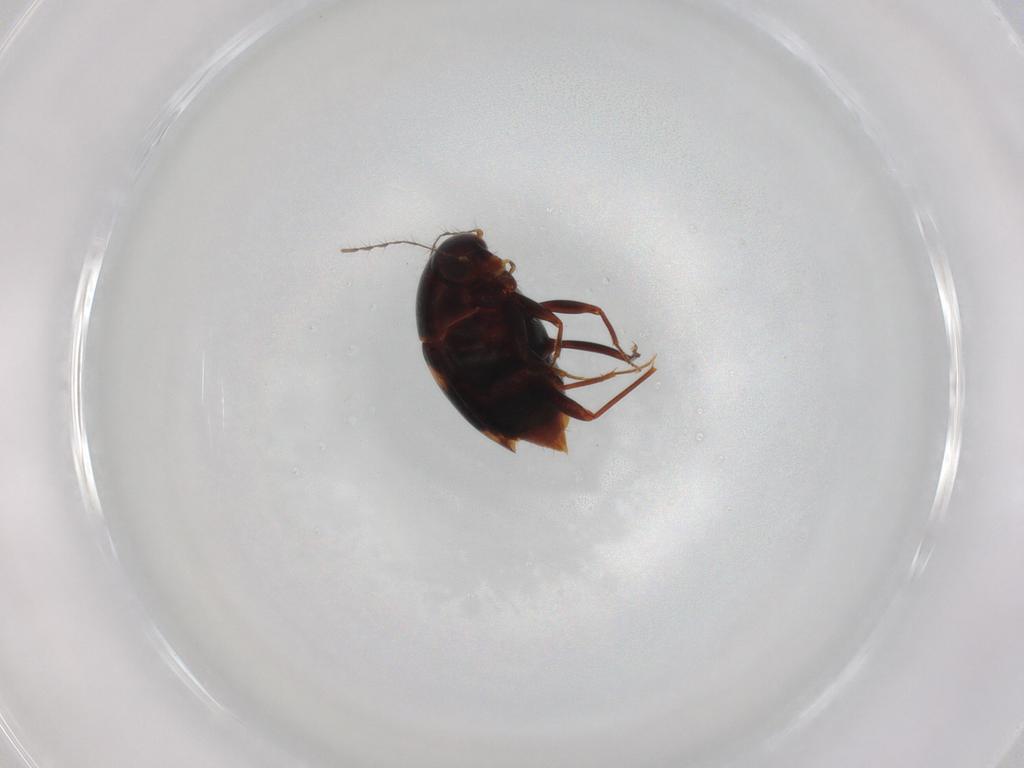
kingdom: Animalia
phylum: Arthropoda
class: Insecta
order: Coleoptera
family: Staphylinidae
